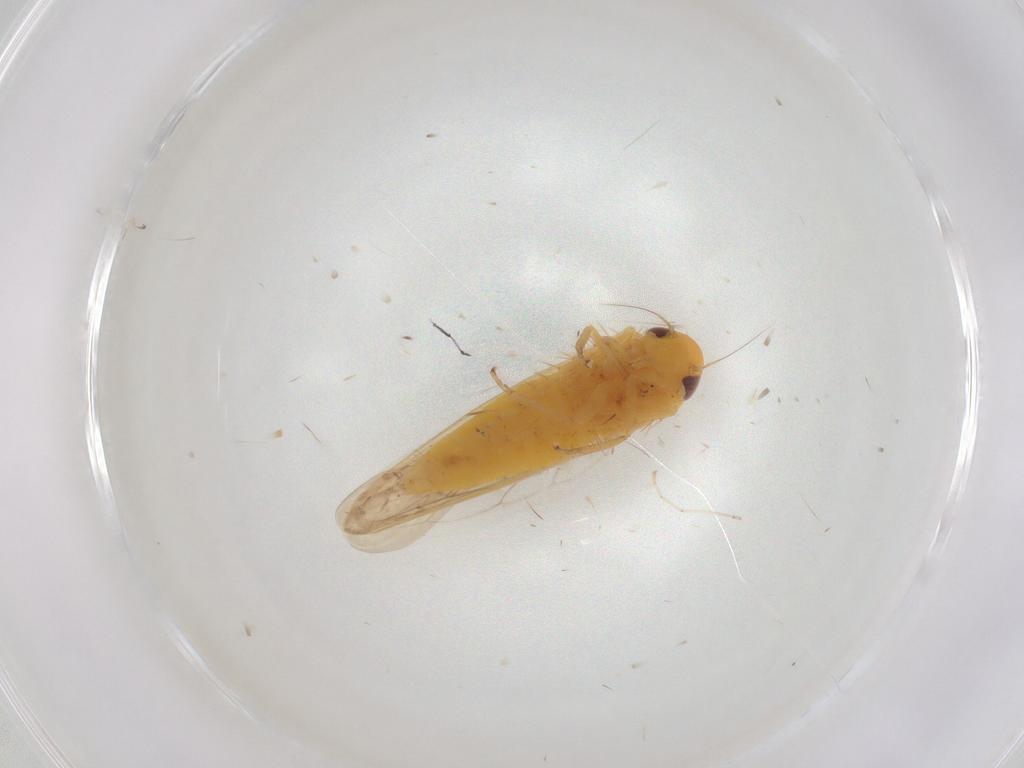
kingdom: Animalia
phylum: Arthropoda
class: Insecta
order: Hemiptera
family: Cicadellidae
